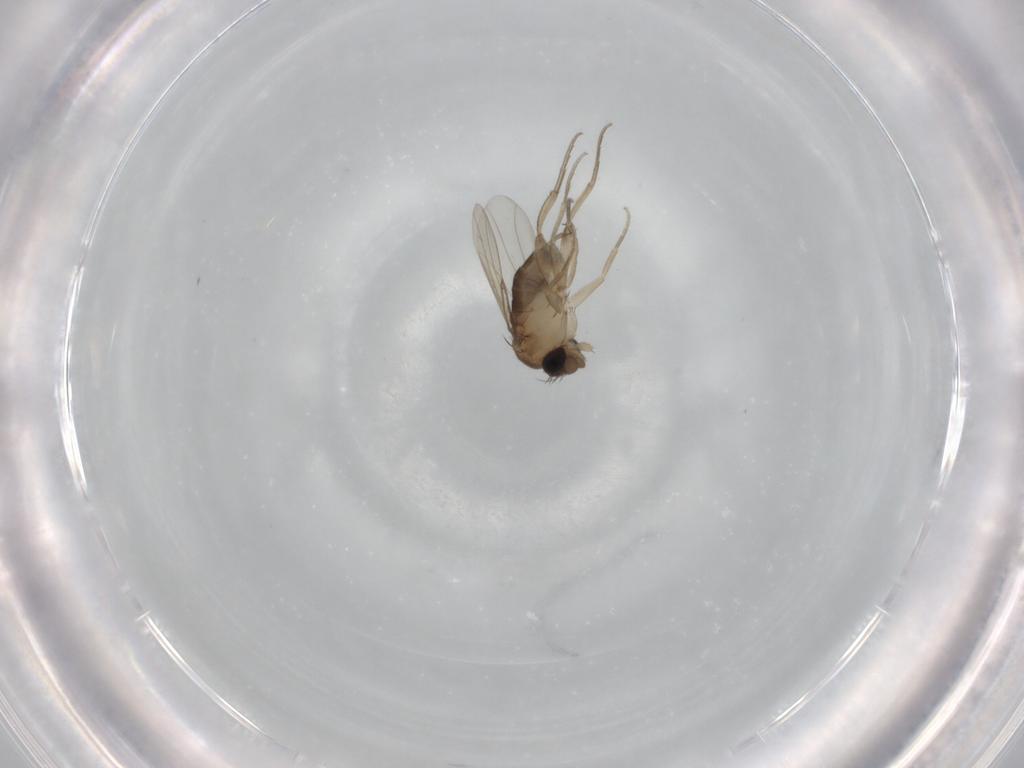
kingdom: Animalia
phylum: Arthropoda
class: Insecta
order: Diptera
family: Phoridae
